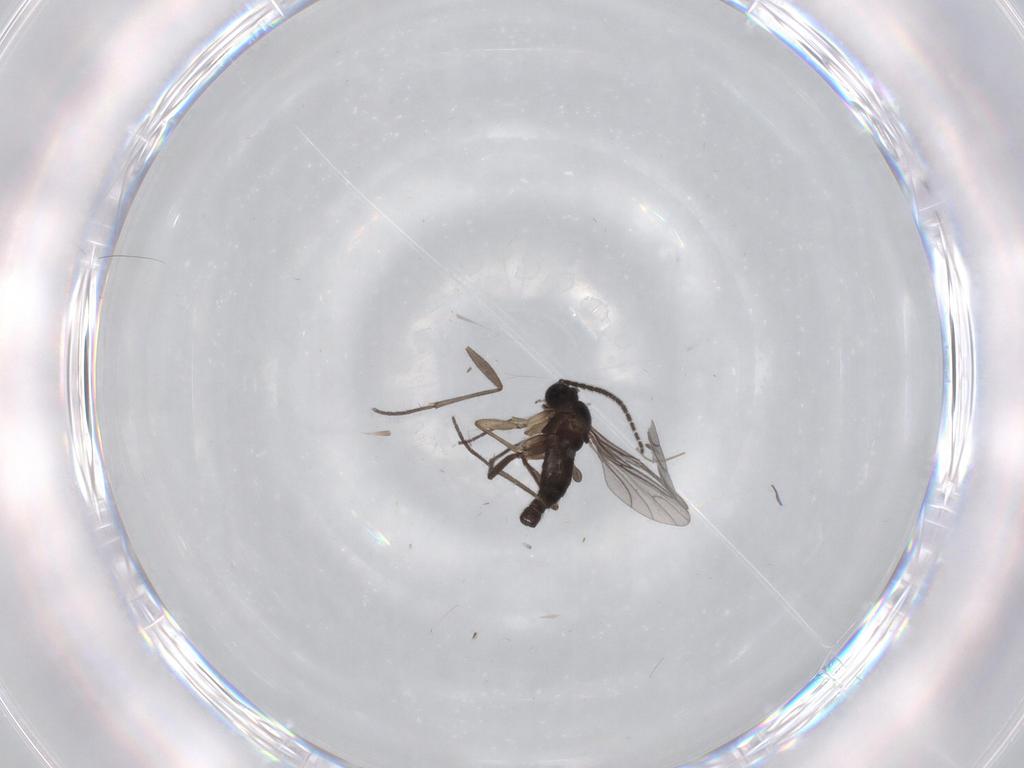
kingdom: Animalia
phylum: Arthropoda
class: Insecta
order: Diptera
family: Sciaridae
